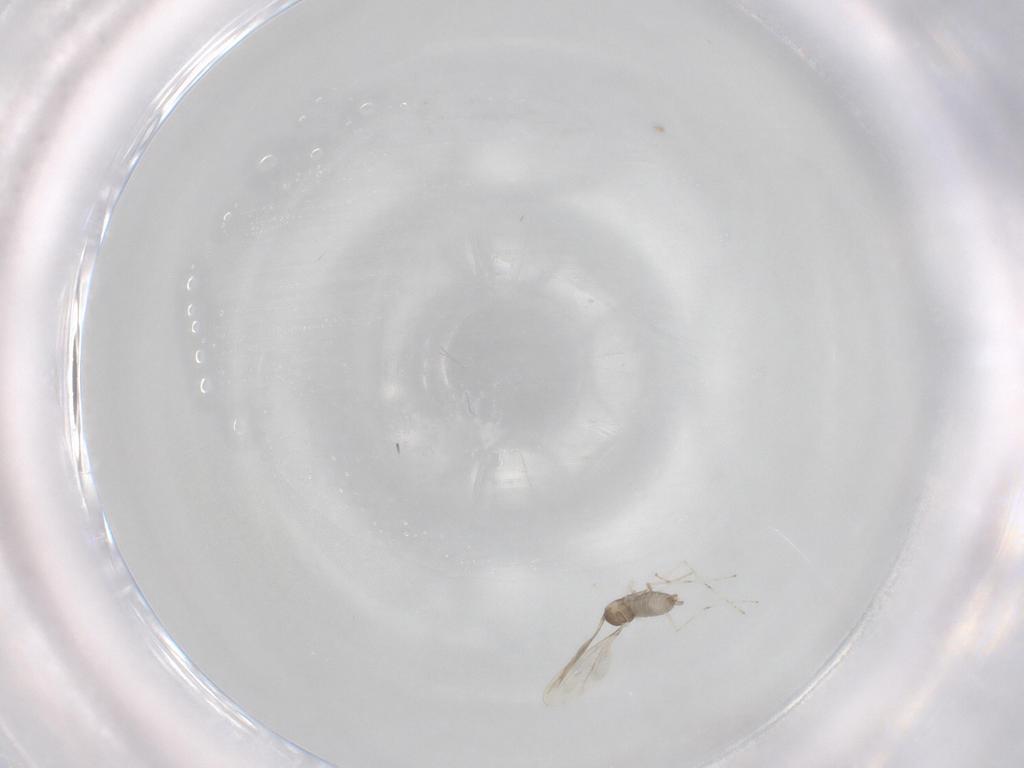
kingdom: Animalia
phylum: Arthropoda
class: Insecta
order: Diptera
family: Cecidomyiidae
